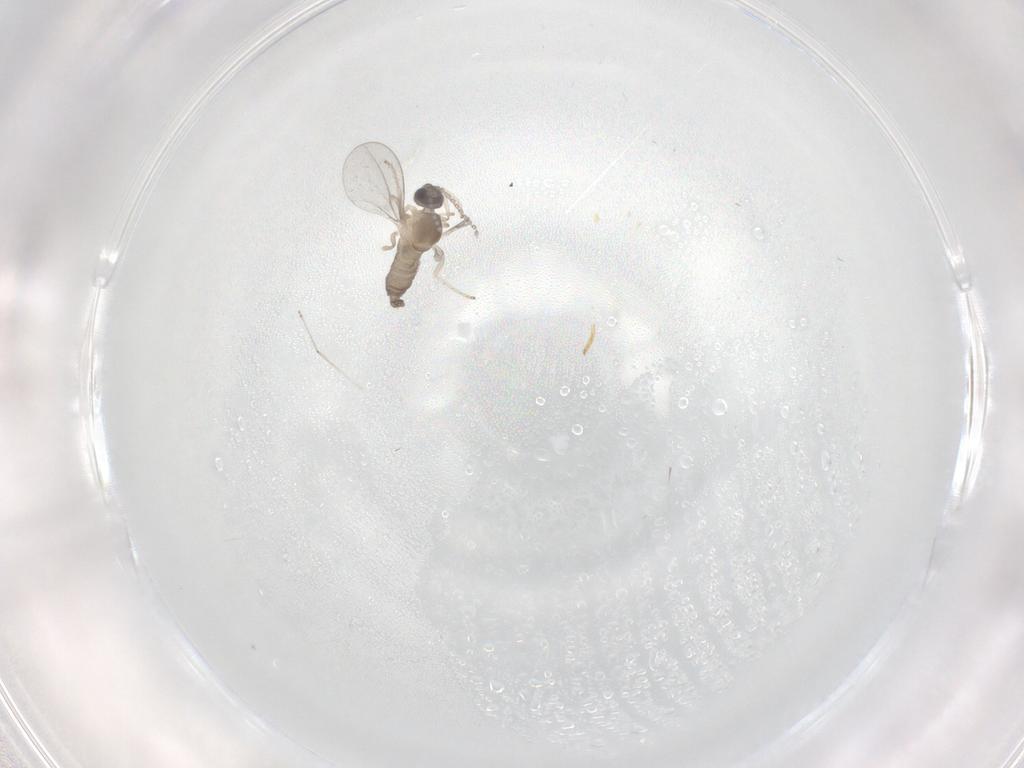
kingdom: Animalia
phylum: Arthropoda
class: Insecta
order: Diptera
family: Cecidomyiidae
